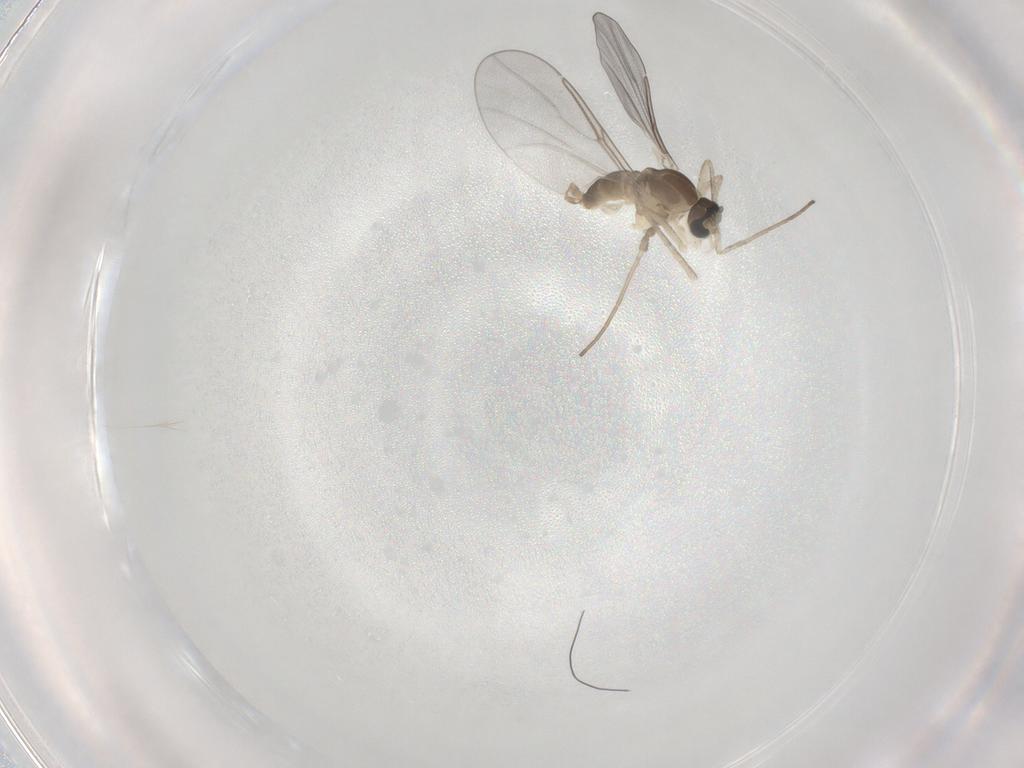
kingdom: Animalia
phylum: Arthropoda
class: Insecta
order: Diptera
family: Cecidomyiidae
